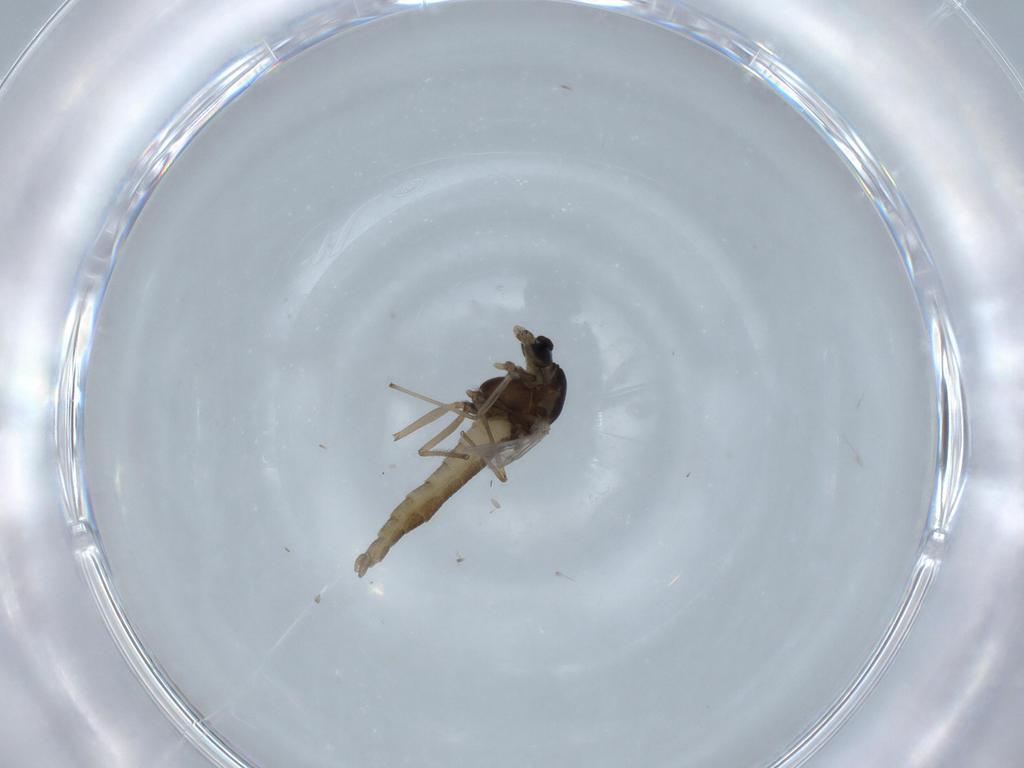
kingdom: Animalia
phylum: Arthropoda
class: Insecta
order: Diptera
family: Chironomidae
